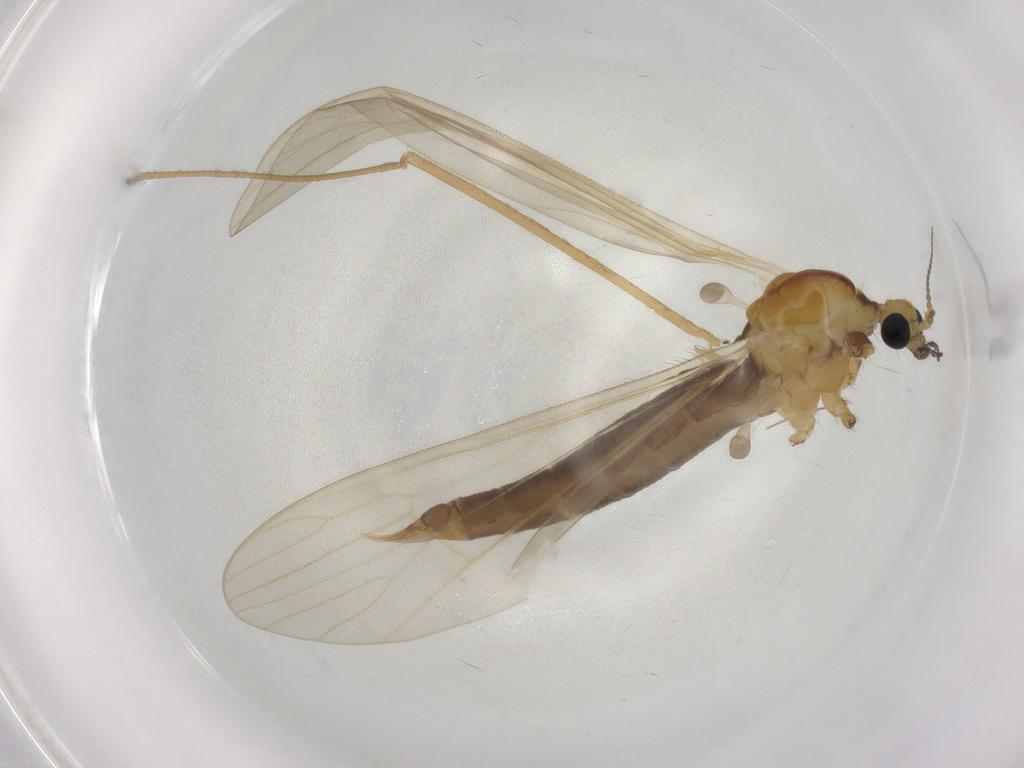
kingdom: Animalia
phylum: Arthropoda
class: Insecta
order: Diptera
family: Limoniidae
